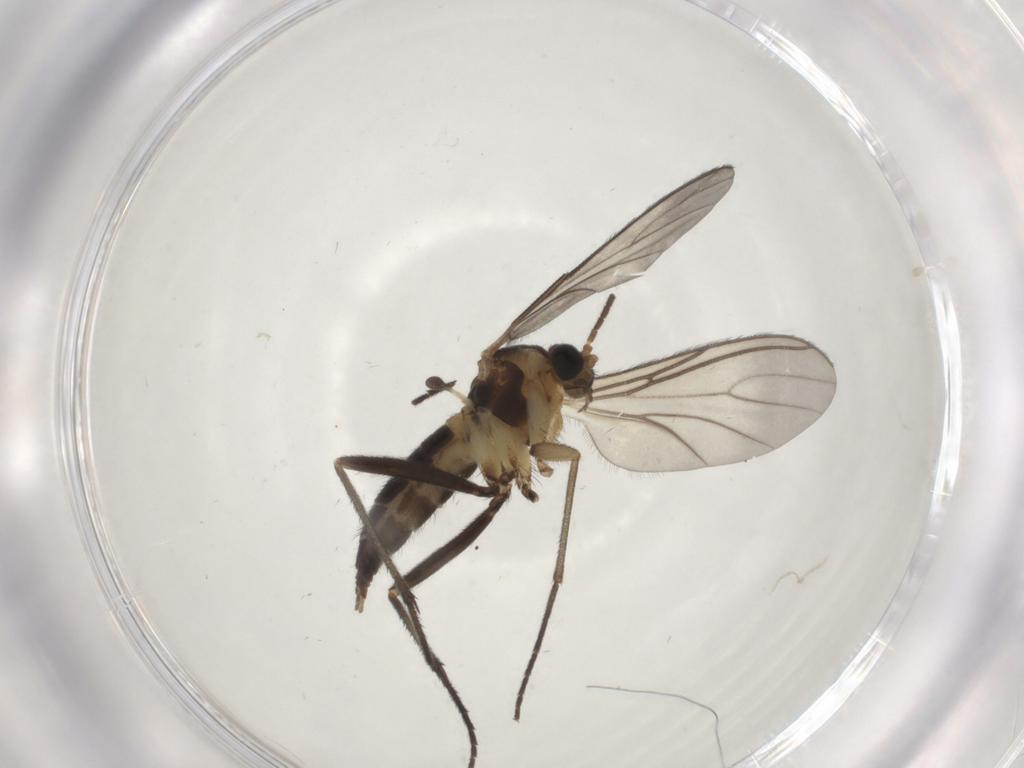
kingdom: Animalia
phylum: Arthropoda
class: Insecta
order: Diptera
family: Sciaridae
